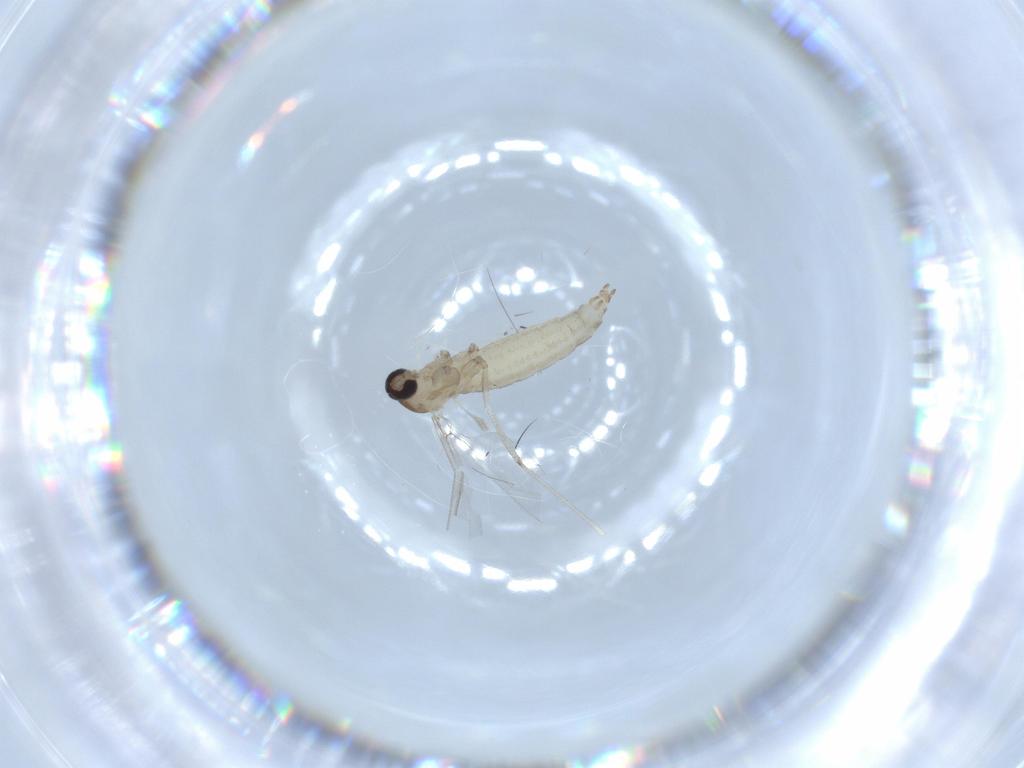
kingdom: Animalia
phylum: Arthropoda
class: Insecta
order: Diptera
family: Cecidomyiidae
